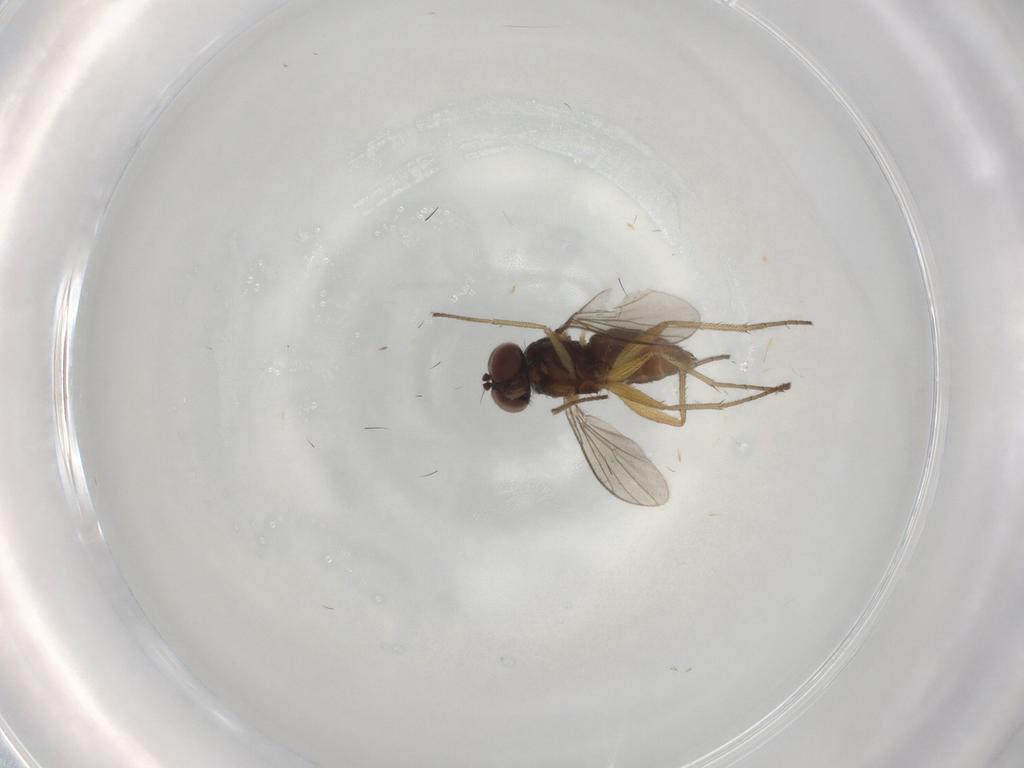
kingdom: Animalia
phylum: Arthropoda
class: Insecta
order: Diptera
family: Dolichopodidae
